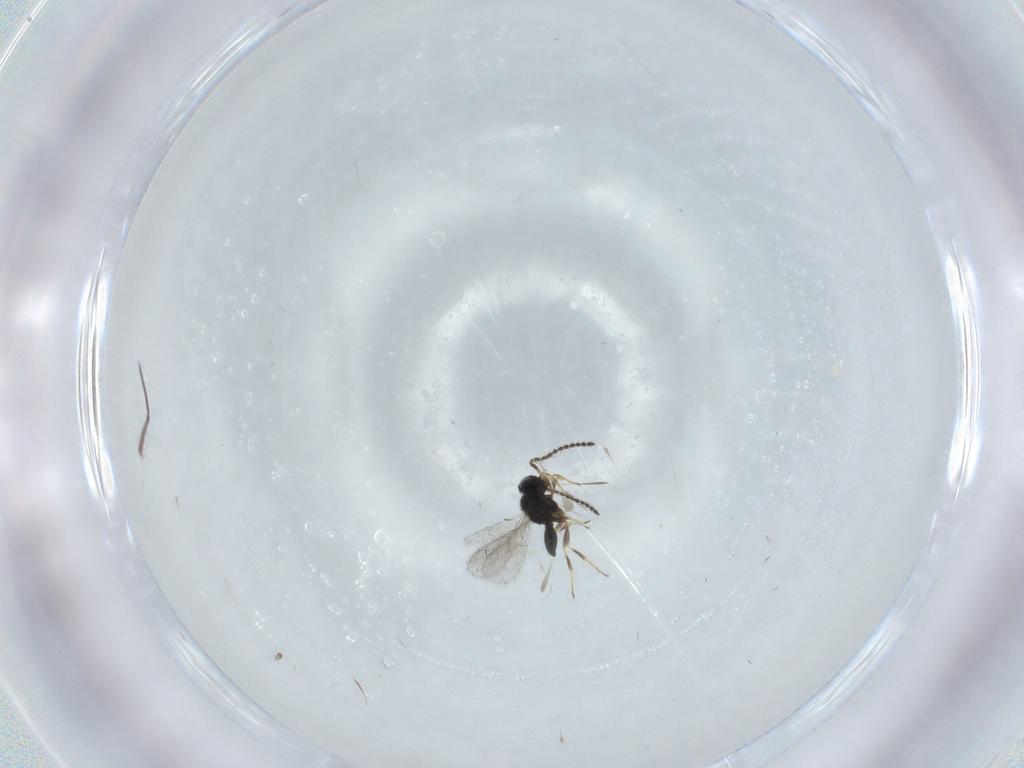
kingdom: Animalia
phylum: Arthropoda
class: Insecta
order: Hymenoptera
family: Scelionidae
